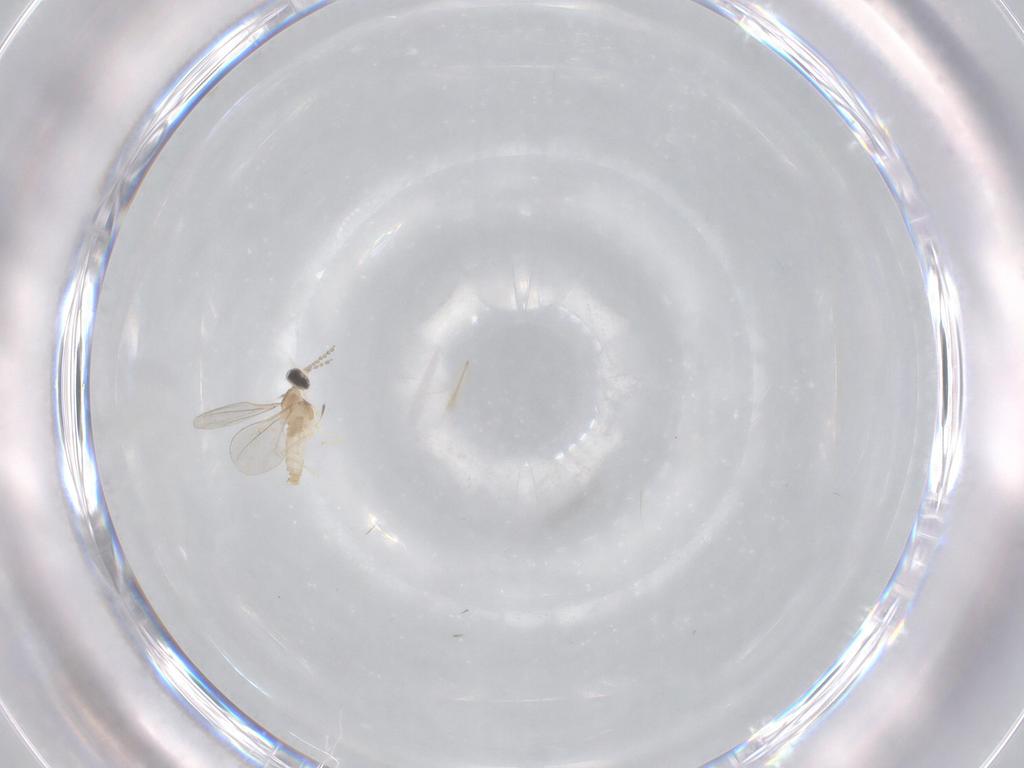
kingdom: Animalia
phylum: Arthropoda
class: Insecta
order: Diptera
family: Cecidomyiidae
